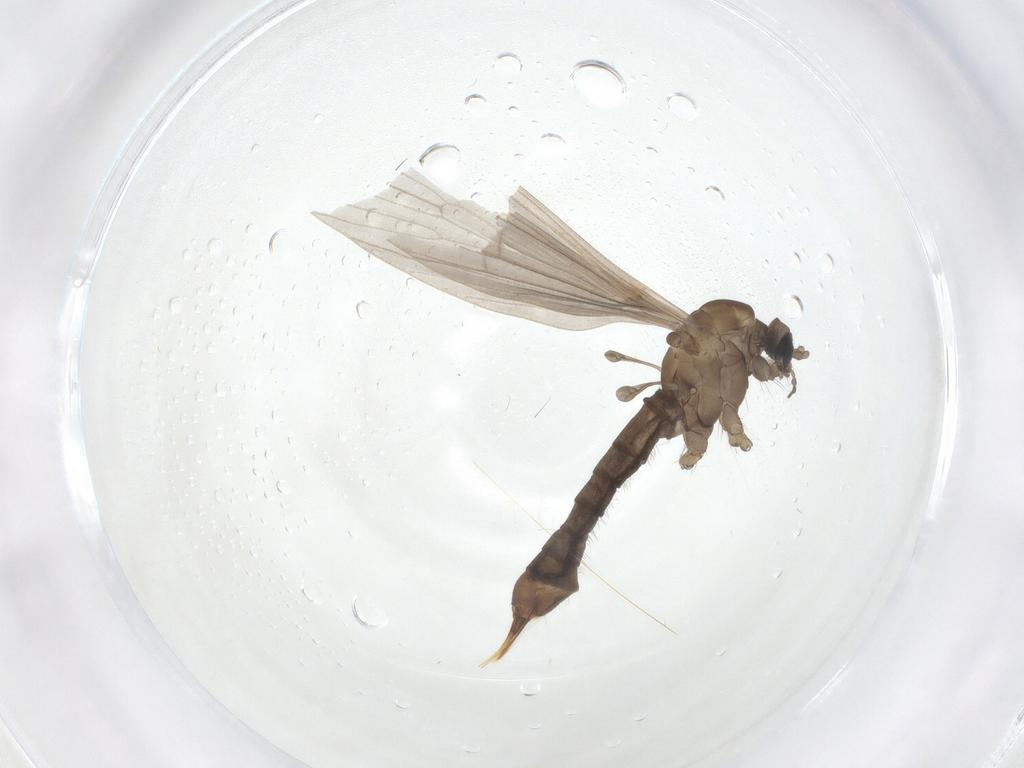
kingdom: Animalia
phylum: Arthropoda
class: Insecta
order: Diptera
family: Limoniidae
